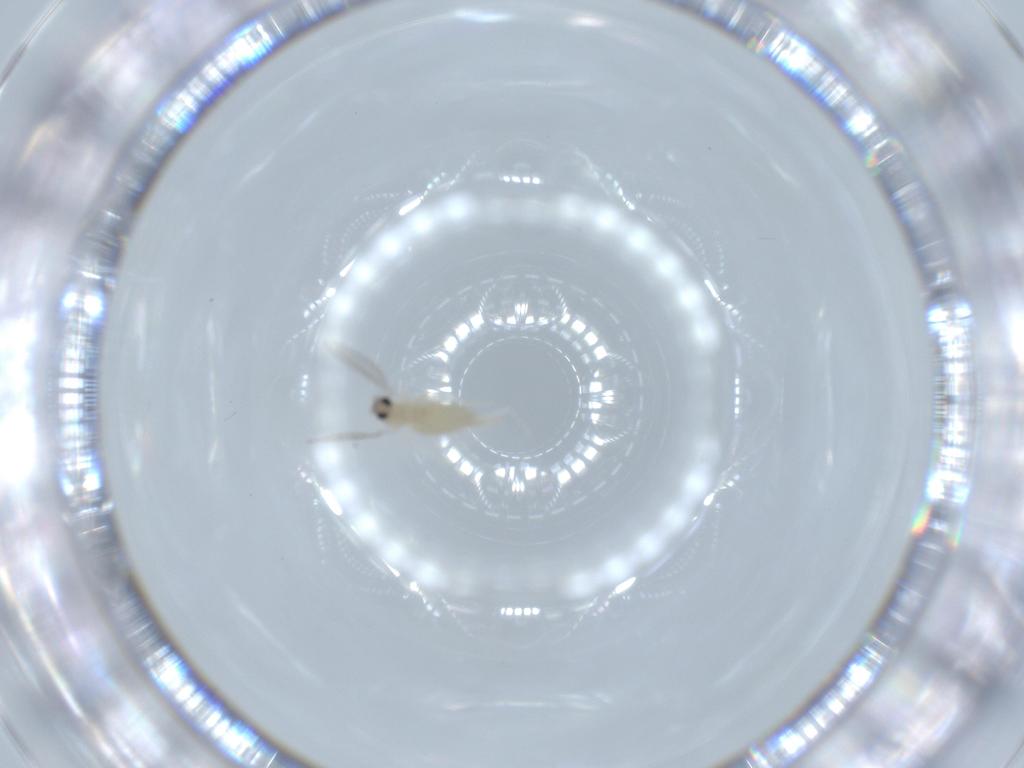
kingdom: Animalia
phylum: Arthropoda
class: Insecta
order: Diptera
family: Cecidomyiidae
